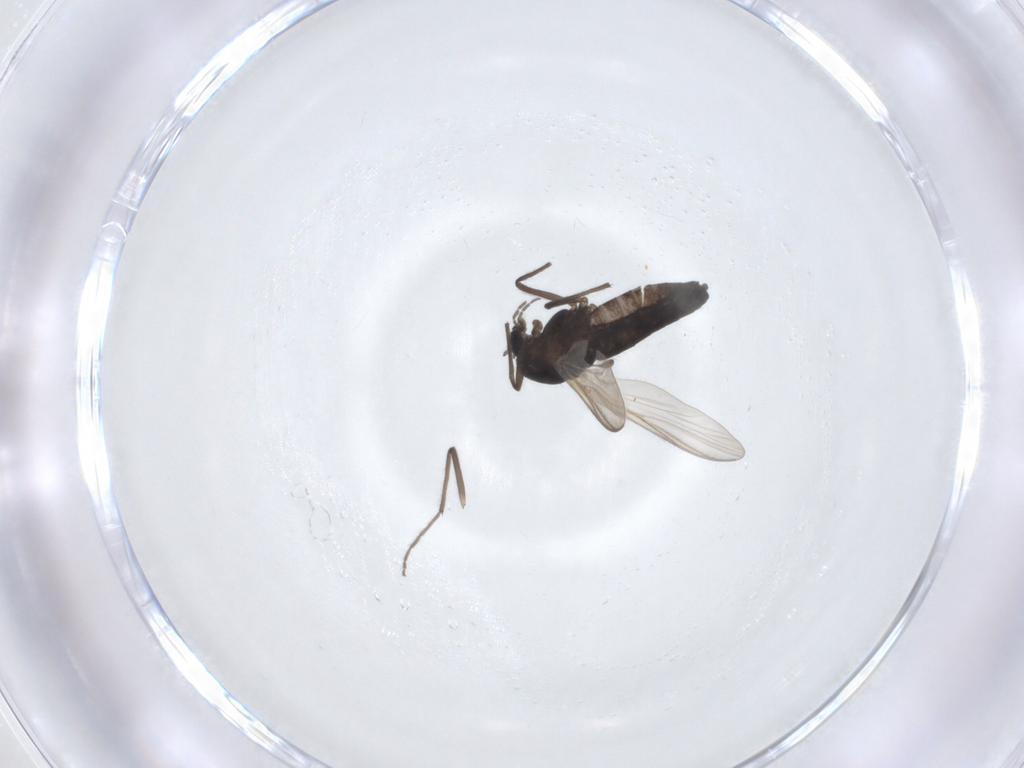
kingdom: Animalia
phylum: Arthropoda
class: Insecta
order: Diptera
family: Chironomidae
